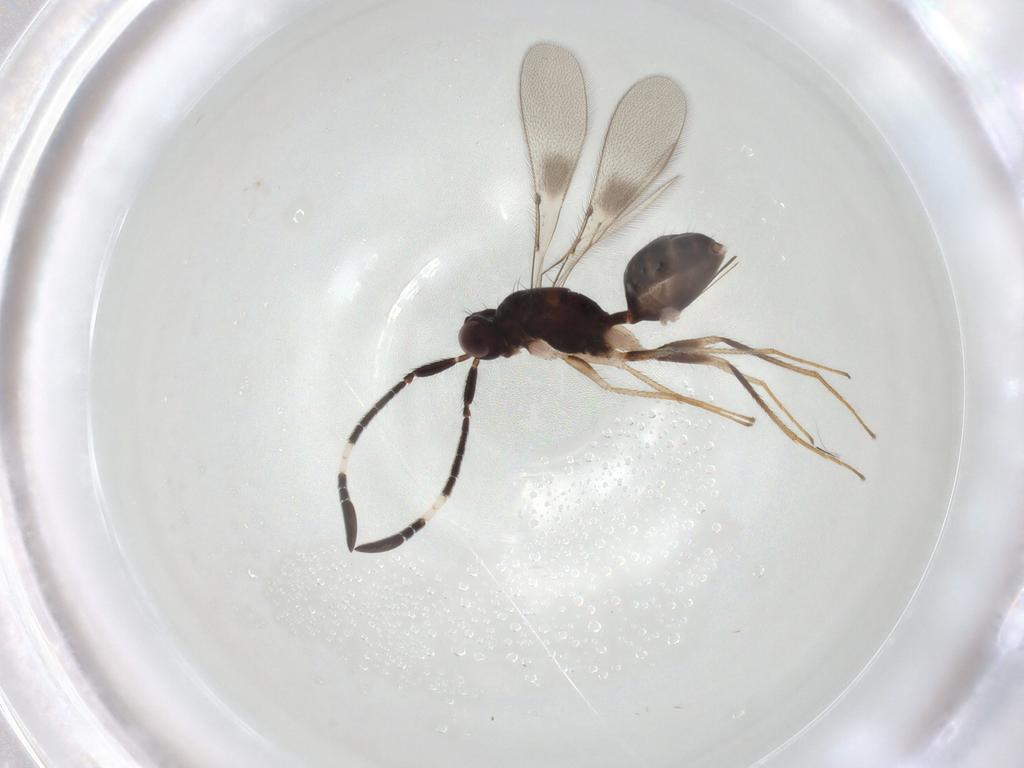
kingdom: Animalia
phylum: Arthropoda
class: Insecta
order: Hymenoptera
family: Mymaridae
